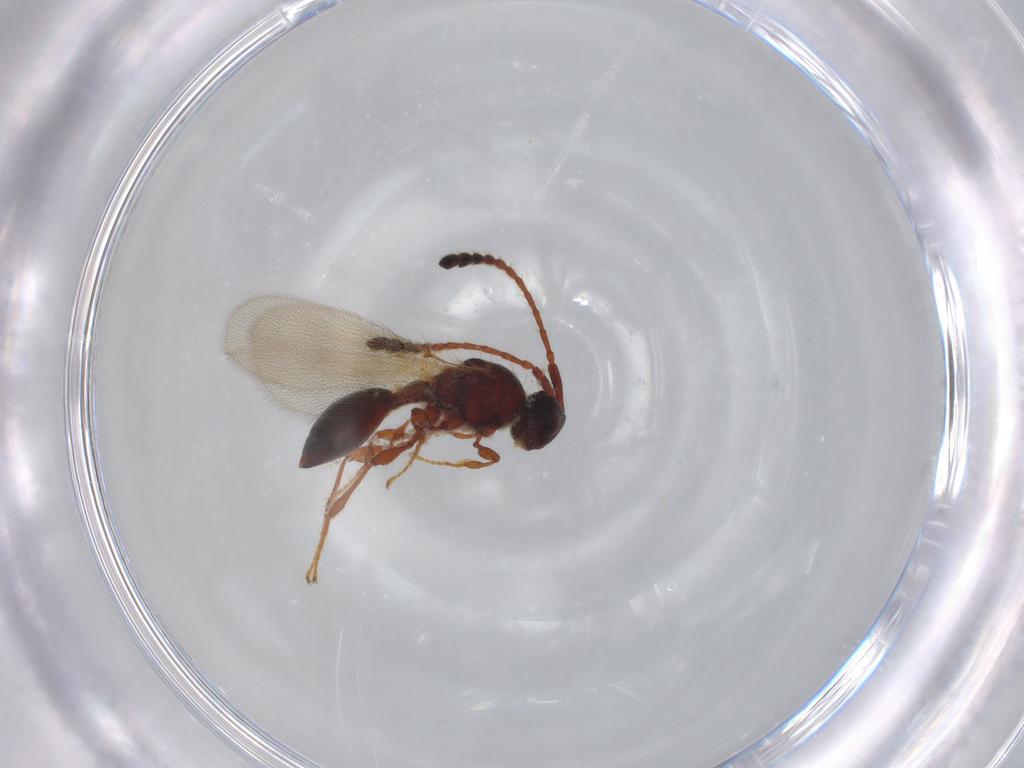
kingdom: Animalia
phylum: Arthropoda
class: Insecta
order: Hymenoptera
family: Diapriidae
